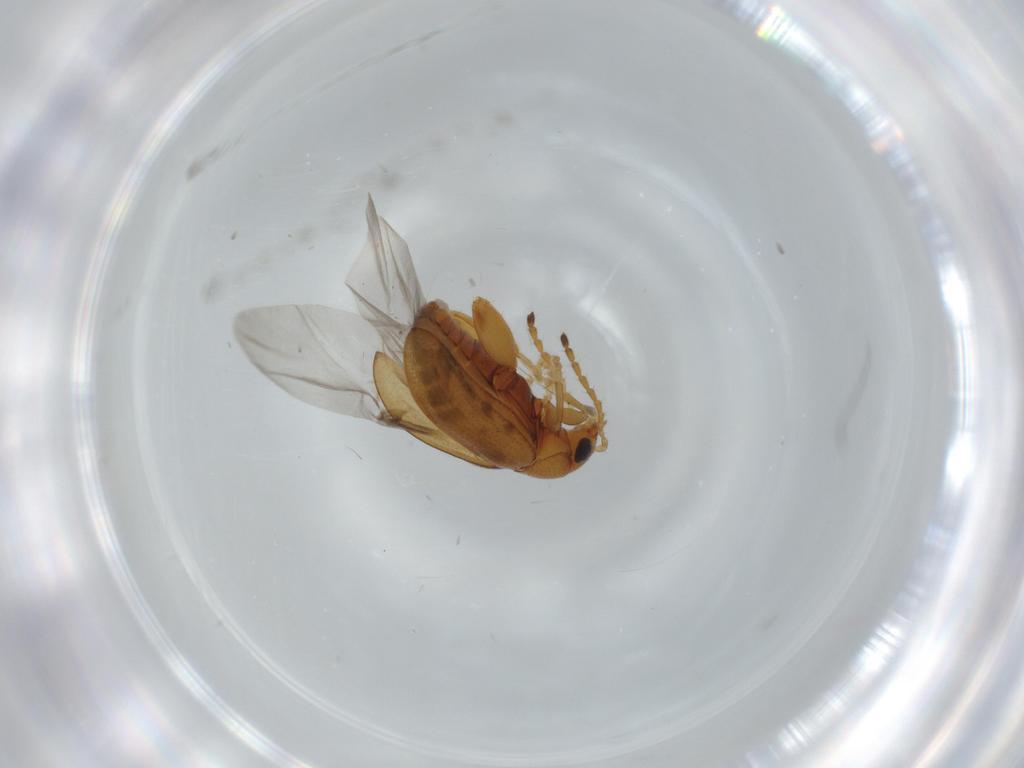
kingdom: Animalia
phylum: Arthropoda
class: Insecta
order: Coleoptera
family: Chrysomelidae
